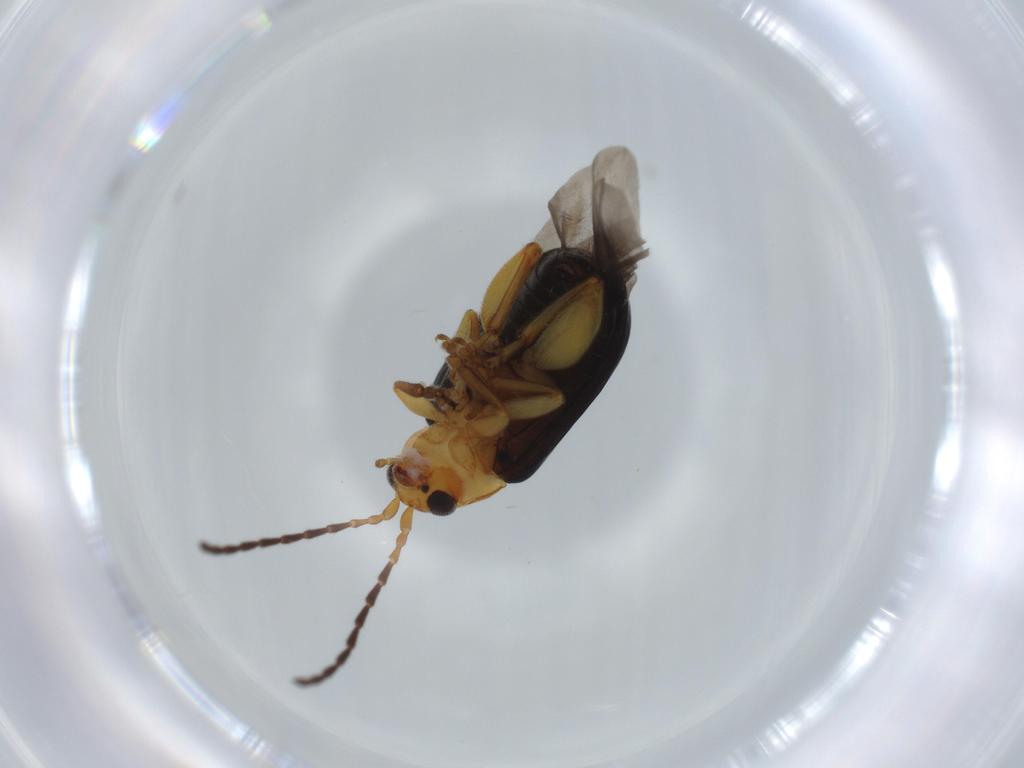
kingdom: Animalia
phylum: Arthropoda
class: Insecta
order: Coleoptera
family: Chrysomelidae
